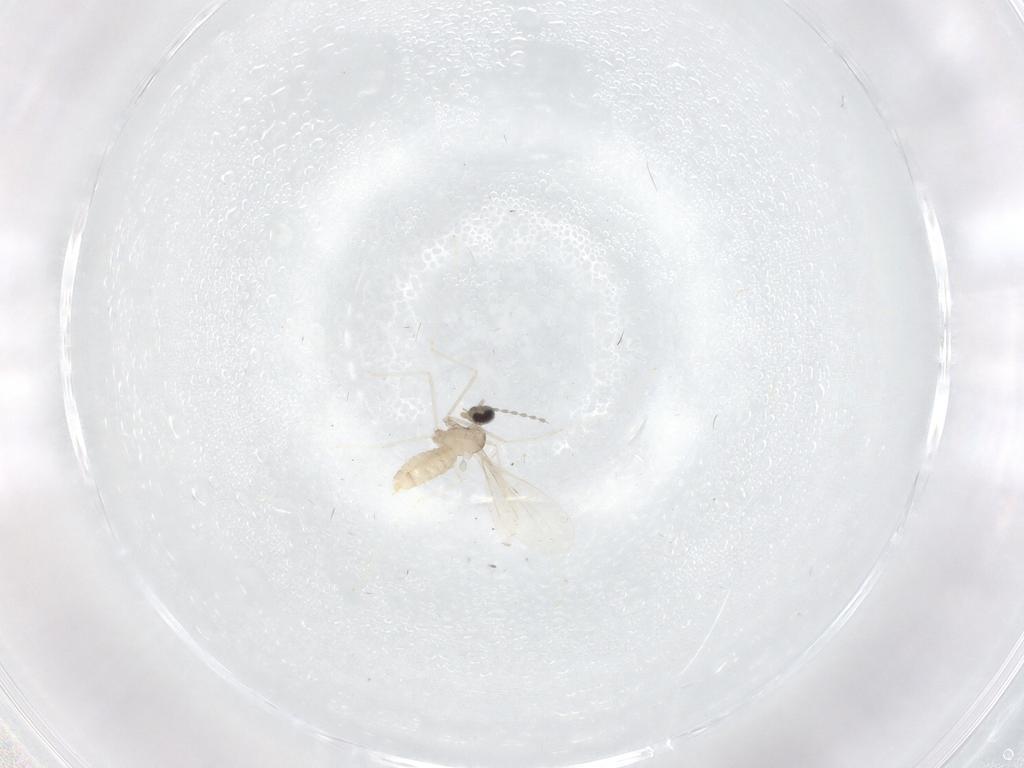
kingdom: Animalia
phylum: Arthropoda
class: Insecta
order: Diptera
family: Cecidomyiidae
